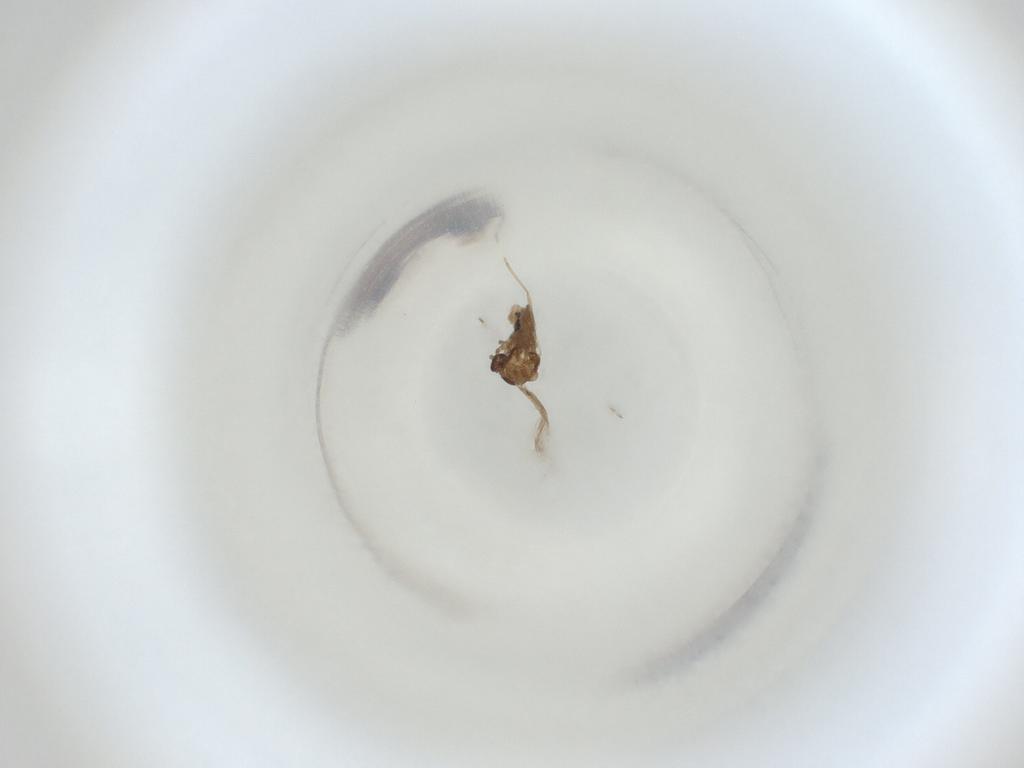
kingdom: Animalia
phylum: Arthropoda
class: Insecta
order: Diptera
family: Cecidomyiidae
